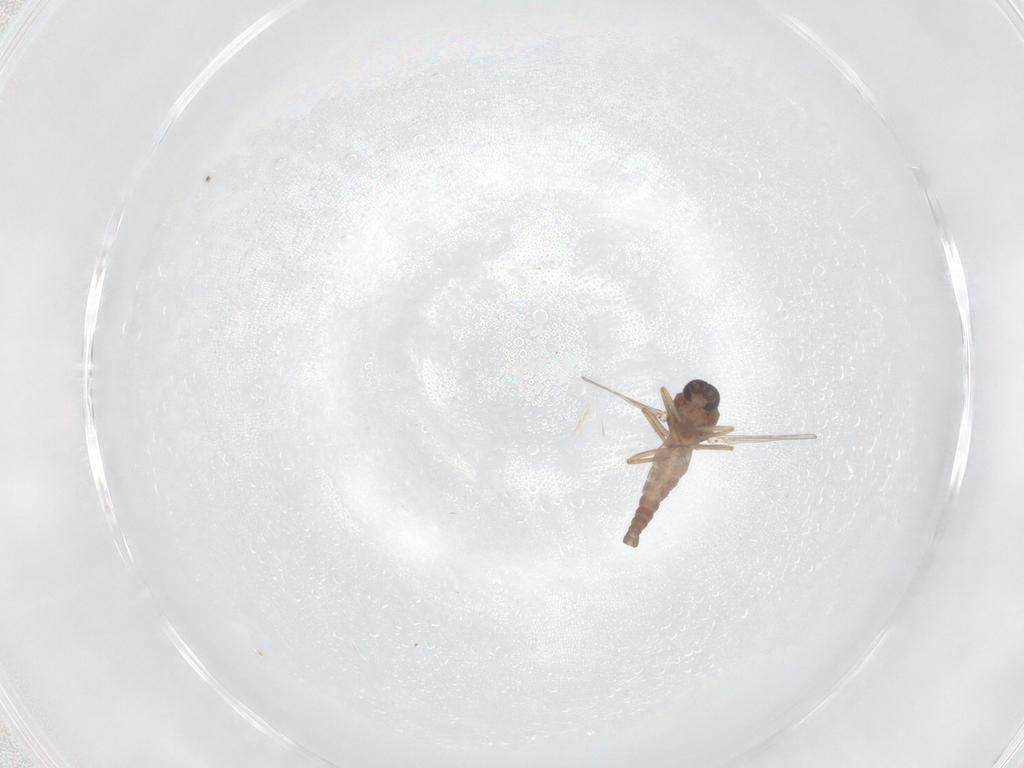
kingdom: Animalia
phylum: Arthropoda
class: Insecta
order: Diptera
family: Ceratopogonidae
